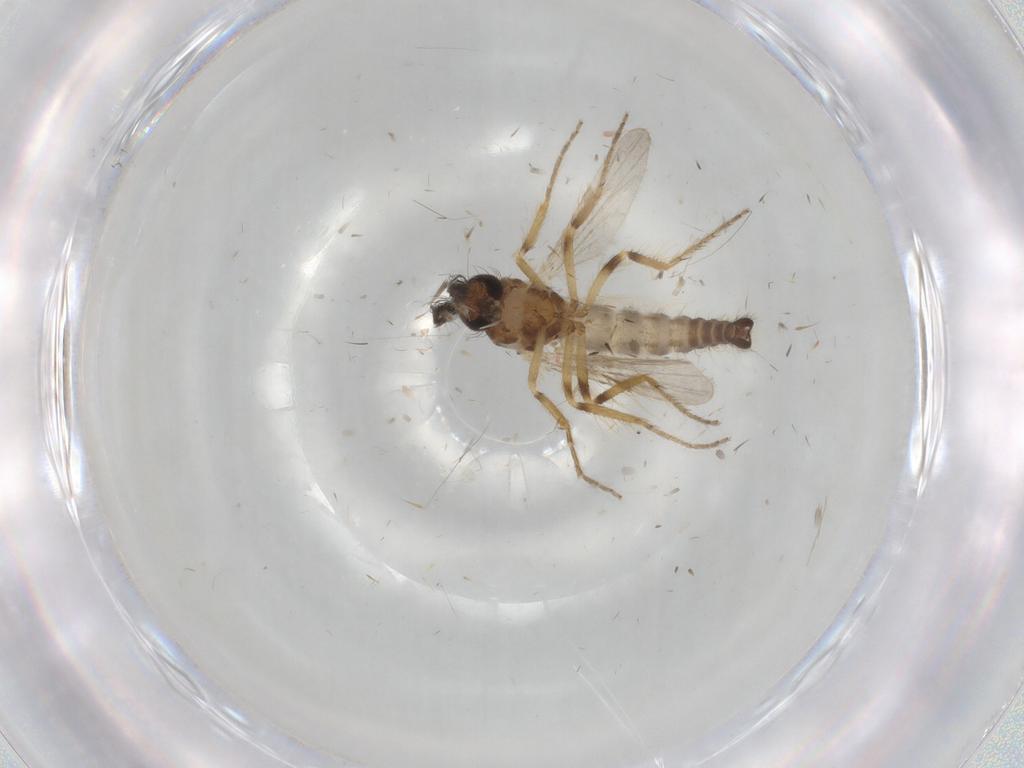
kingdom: Animalia
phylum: Arthropoda
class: Insecta
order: Diptera
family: Ceratopogonidae
